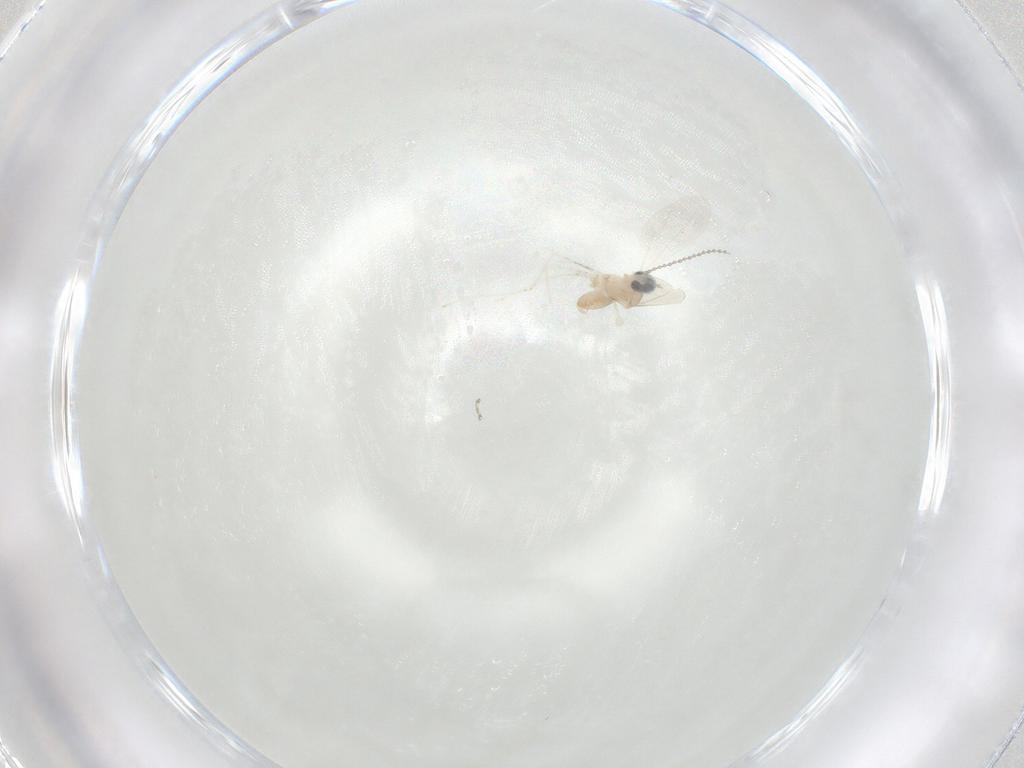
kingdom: Animalia
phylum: Arthropoda
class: Insecta
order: Diptera
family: Cecidomyiidae
